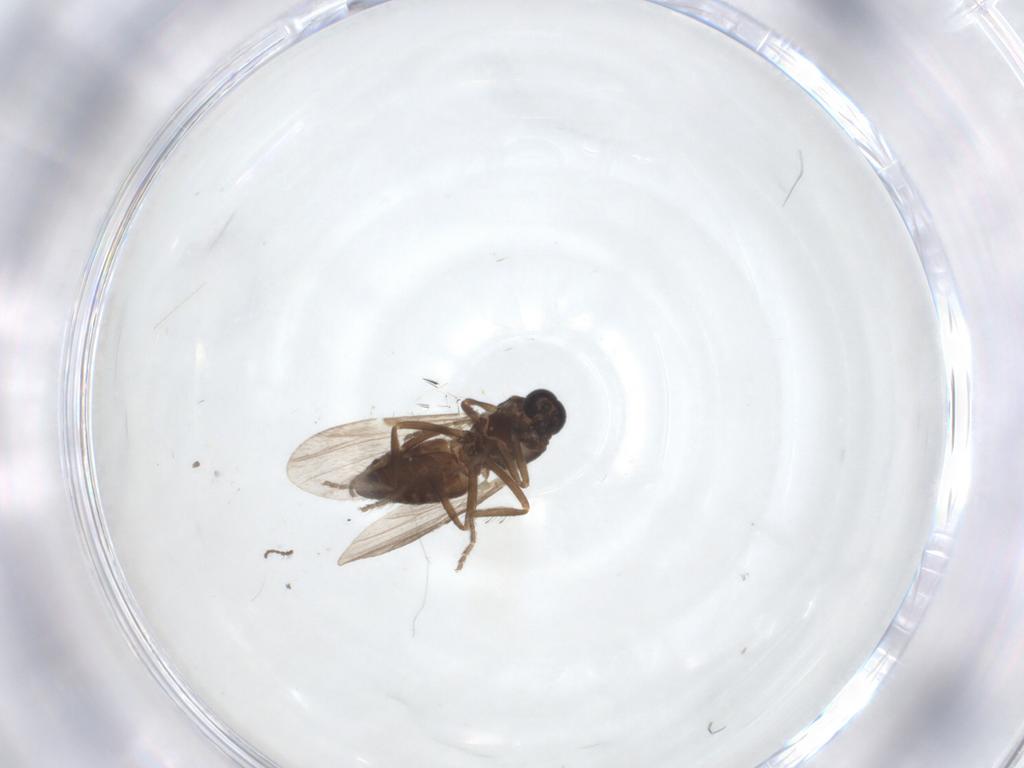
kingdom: Animalia
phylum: Arthropoda
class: Insecta
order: Diptera
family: Ceratopogonidae
